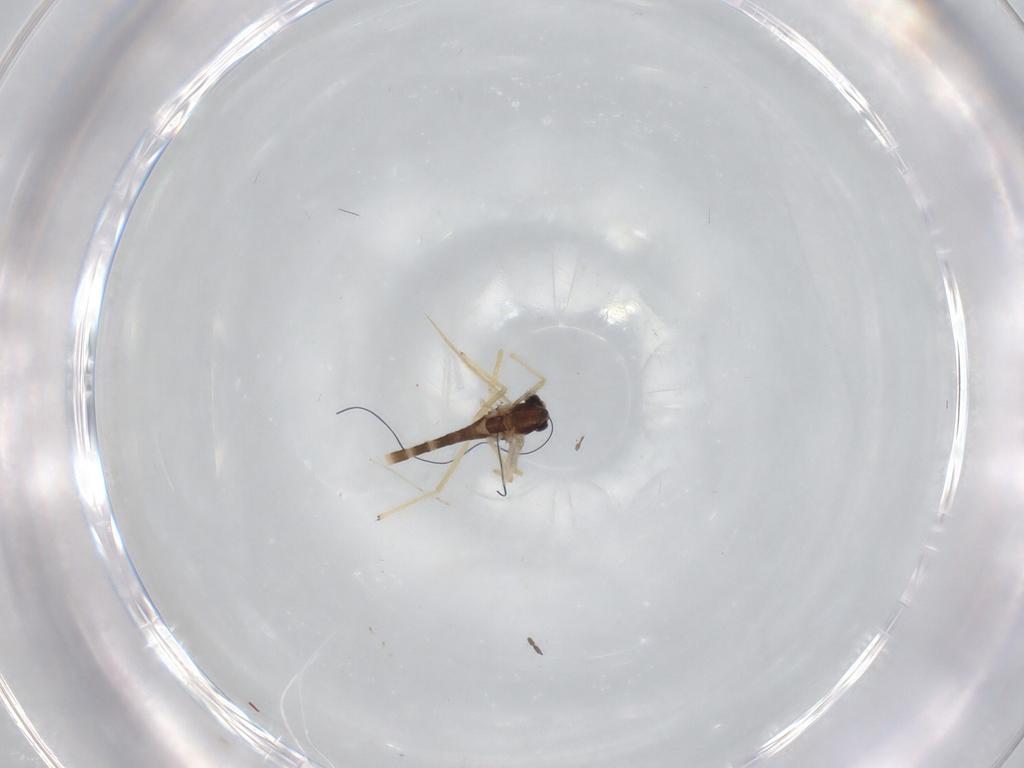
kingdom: Animalia
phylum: Arthropoda
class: Insecta
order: Diptera
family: Chironomidae
